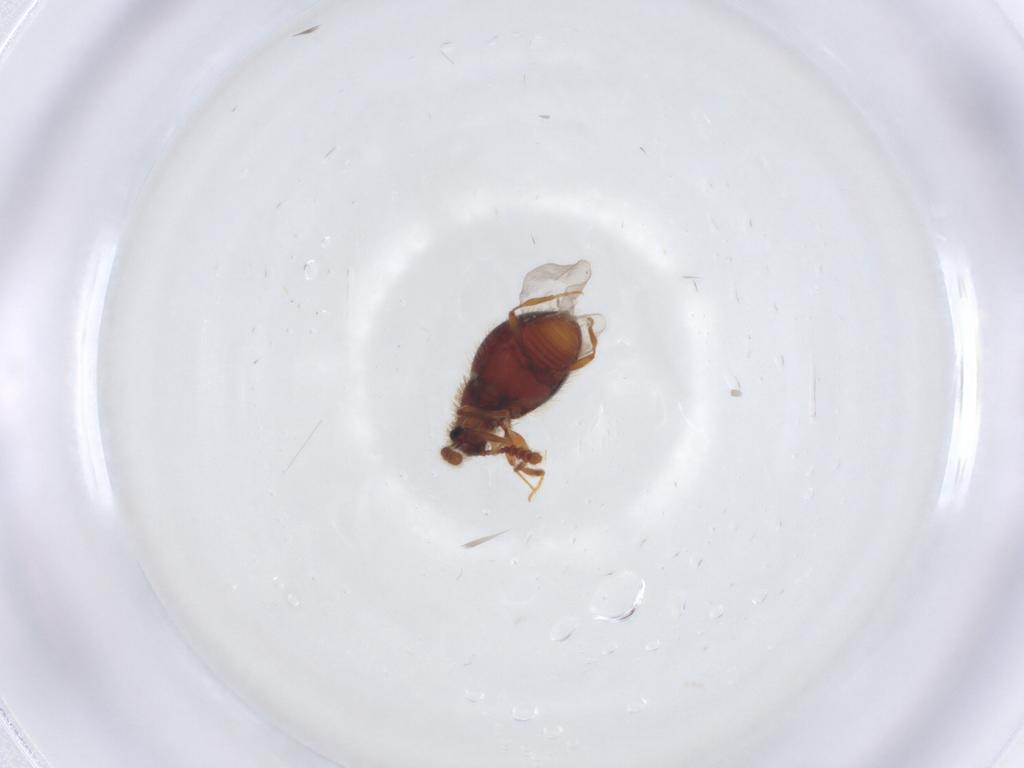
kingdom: Animalia
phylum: Arthropoda
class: Insecta
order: Coleoptera
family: Staphylinidae
